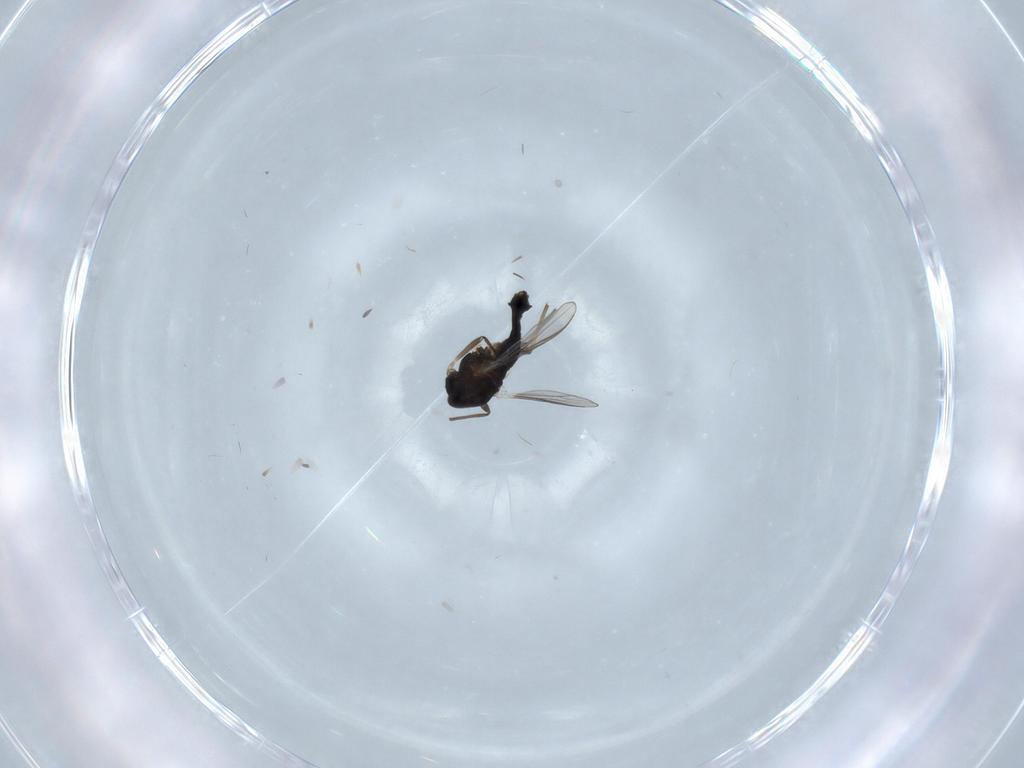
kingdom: Animalia
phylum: Arthropoda
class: Insecta
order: Diptera
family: Chironomidae
